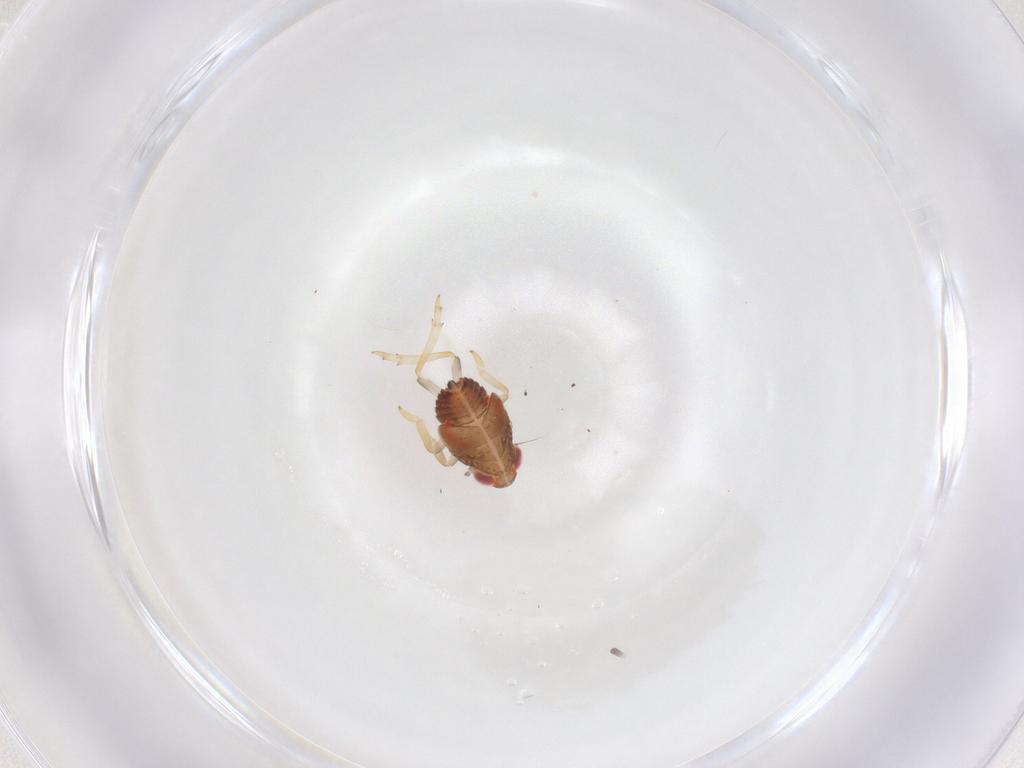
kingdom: Animalia
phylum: Arthropoda
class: Insecta
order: Hemiptera
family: Issidae
